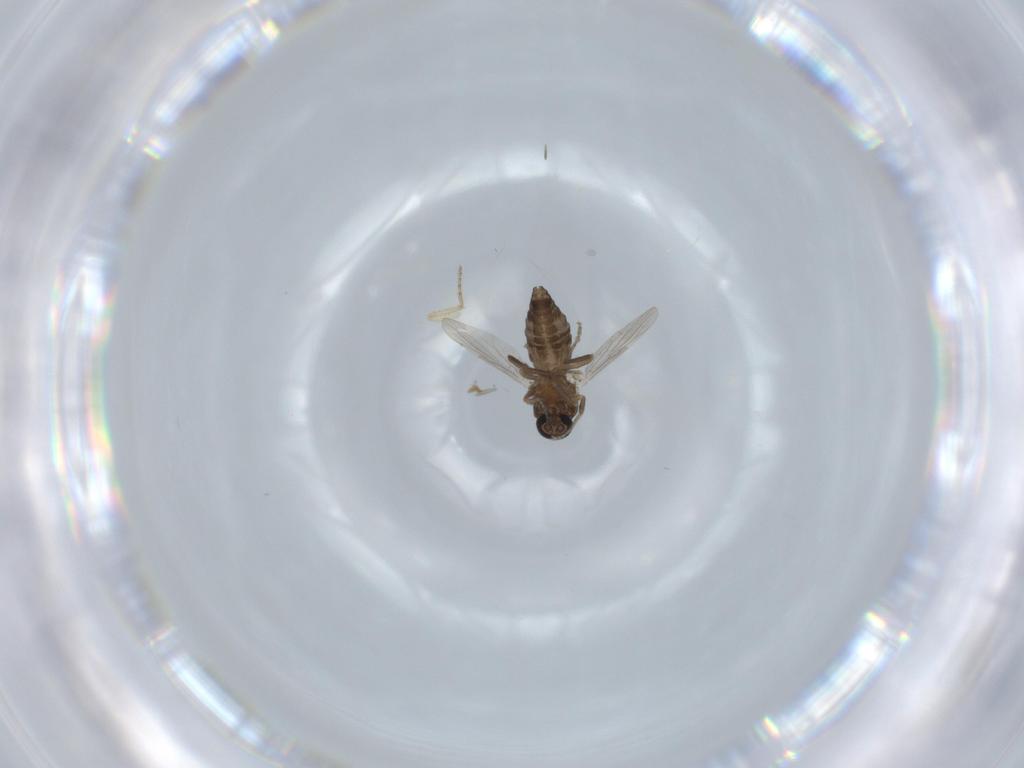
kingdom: Animalia
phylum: Arthropoda
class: Insecta
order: Diptera
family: Ceratopogonidae
